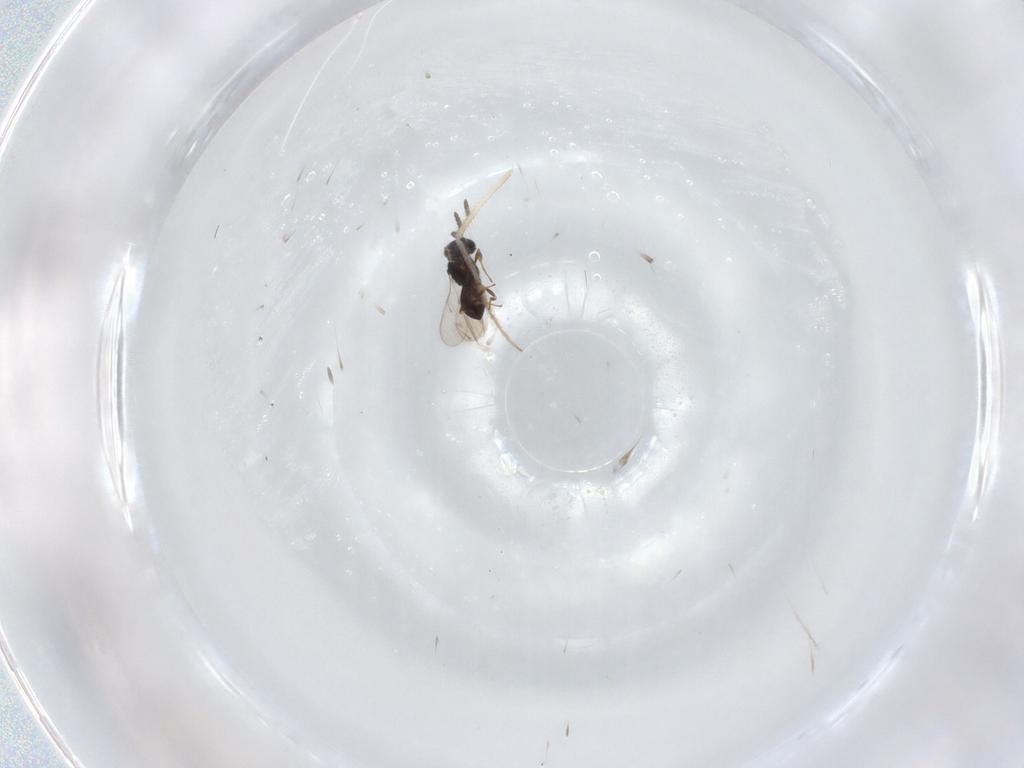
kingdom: Animalia
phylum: Arthropoda
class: Insecta
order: Hymenoptera
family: Scelionidae
